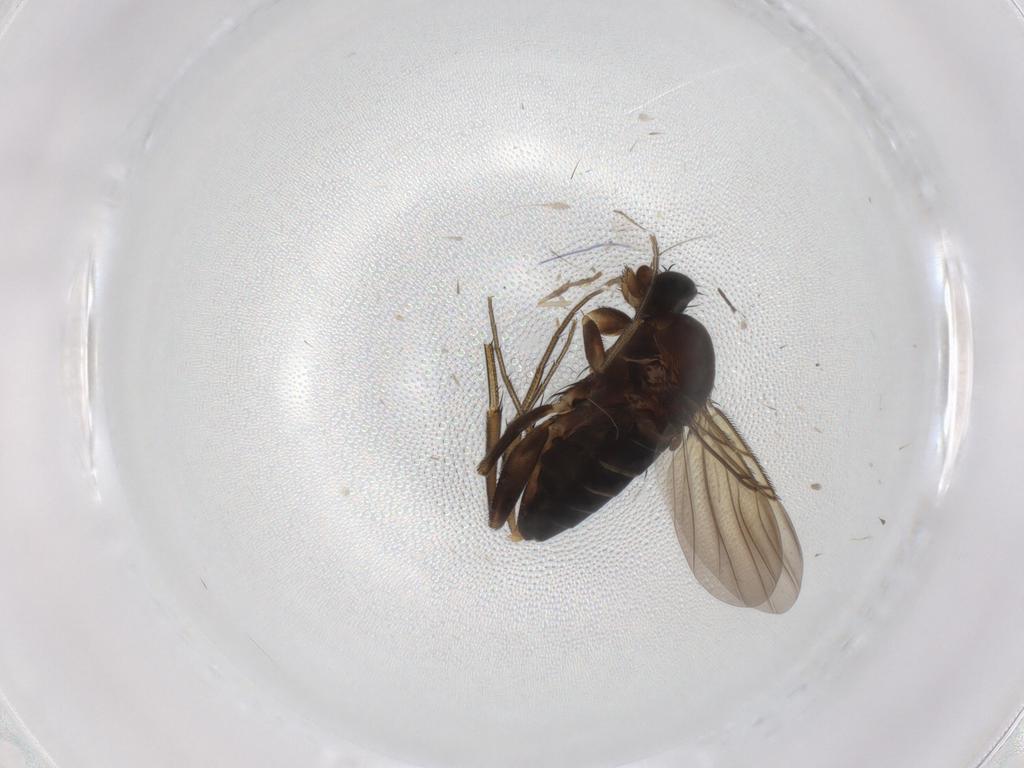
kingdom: Animalia
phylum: Arthropoda
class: Insecta
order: Diptera
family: Phoridae
